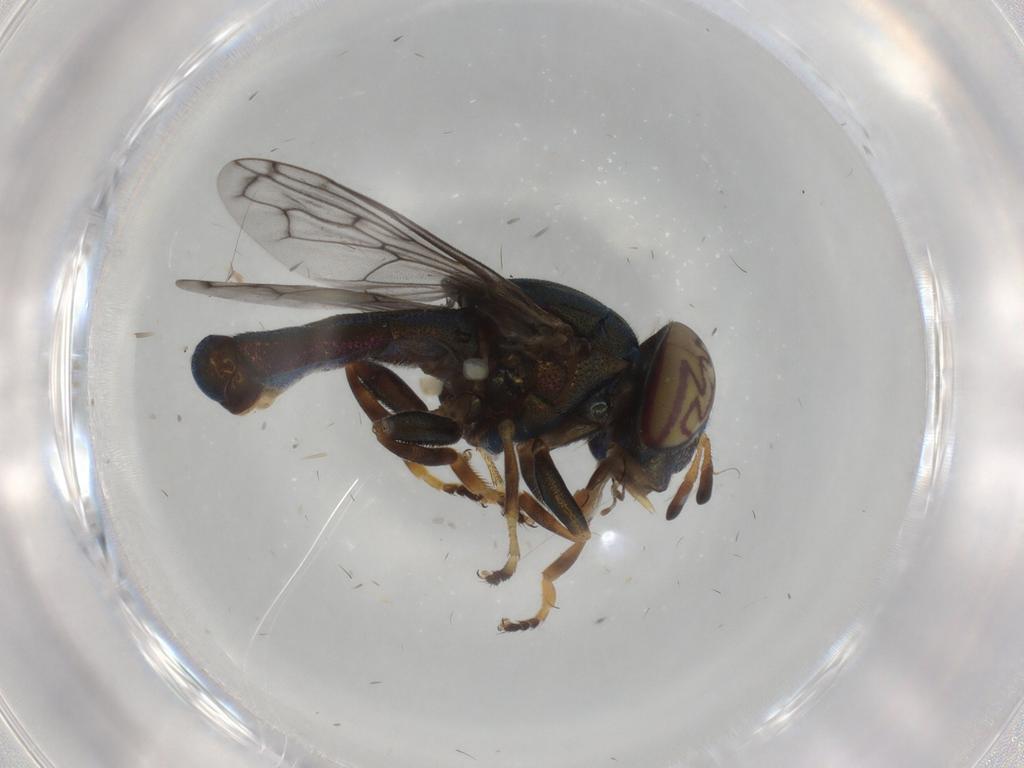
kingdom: Animalia
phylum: Arthropoda
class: Insecta
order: Diptera
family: Syrphidae
